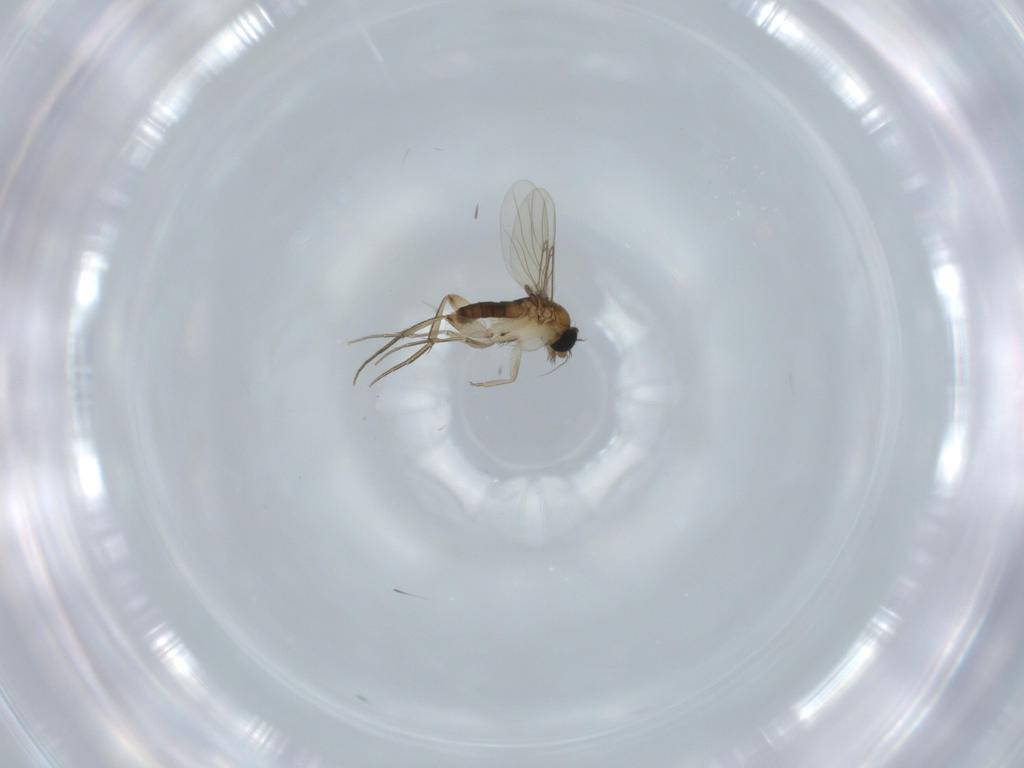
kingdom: Animalia
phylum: Arthropoda
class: Insecta
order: Diptera
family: Phoridae
